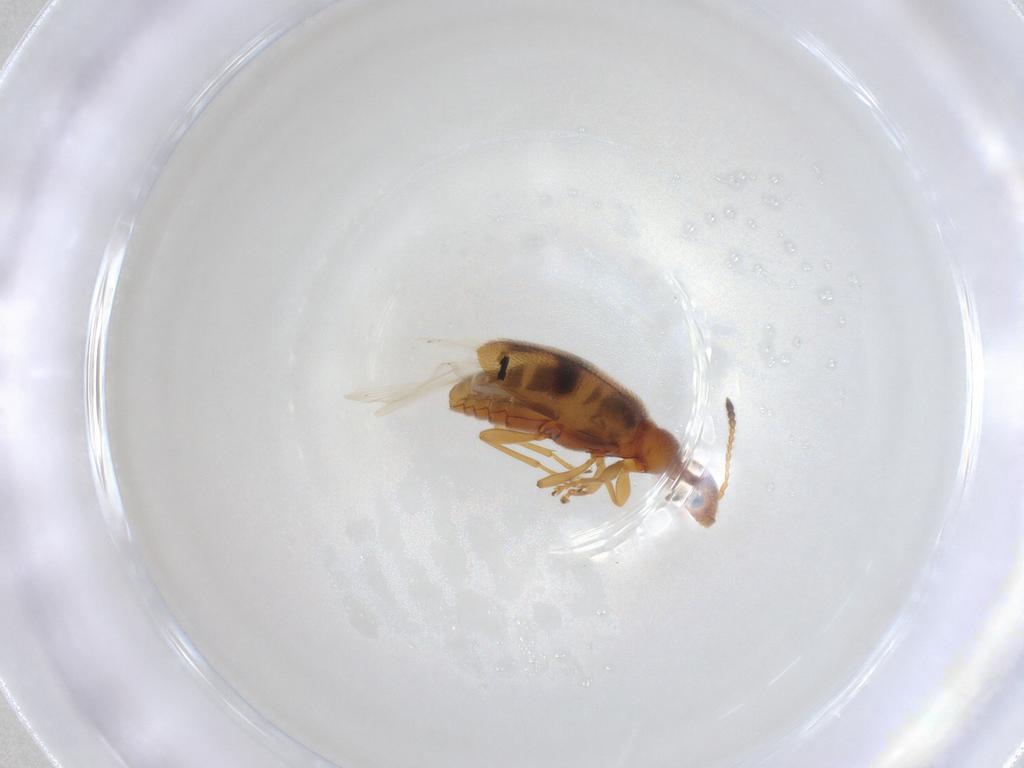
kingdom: Animalia
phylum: Arthropoda
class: Insecta
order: Coleoptera
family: Anthicidae
